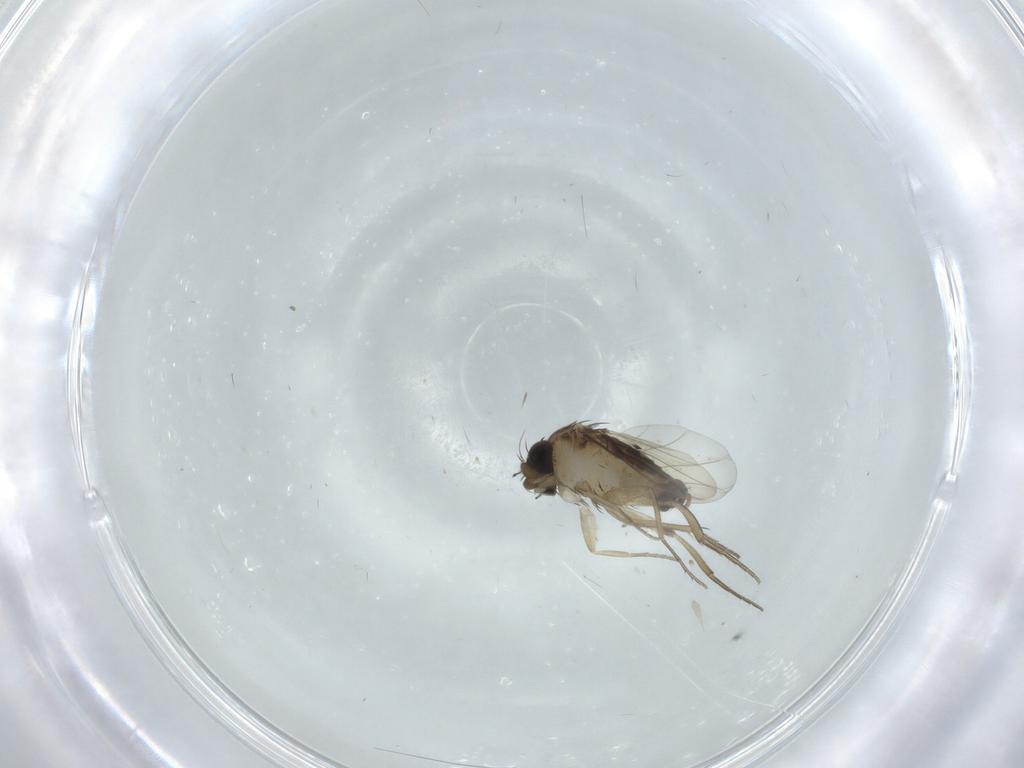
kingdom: Animalia
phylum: Arthropoda
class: Insecta
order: Diptera
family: Phoridae
